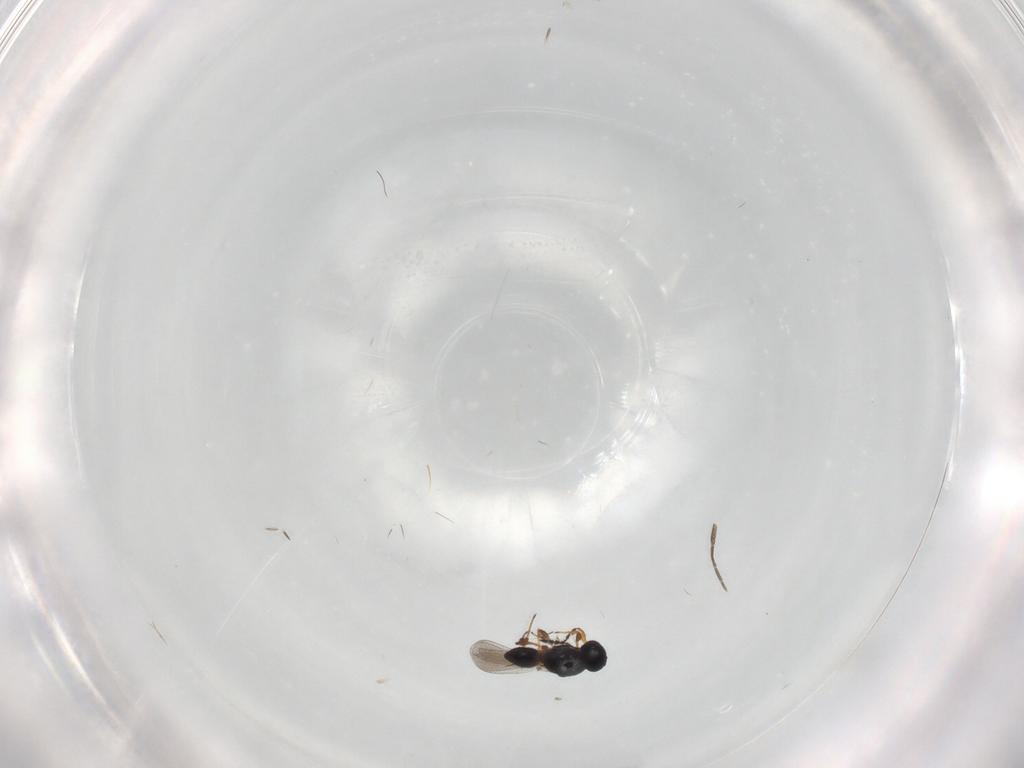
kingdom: Animalia
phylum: Arthropoda
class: Insecta
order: Hymenoptera
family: Platygastridae
